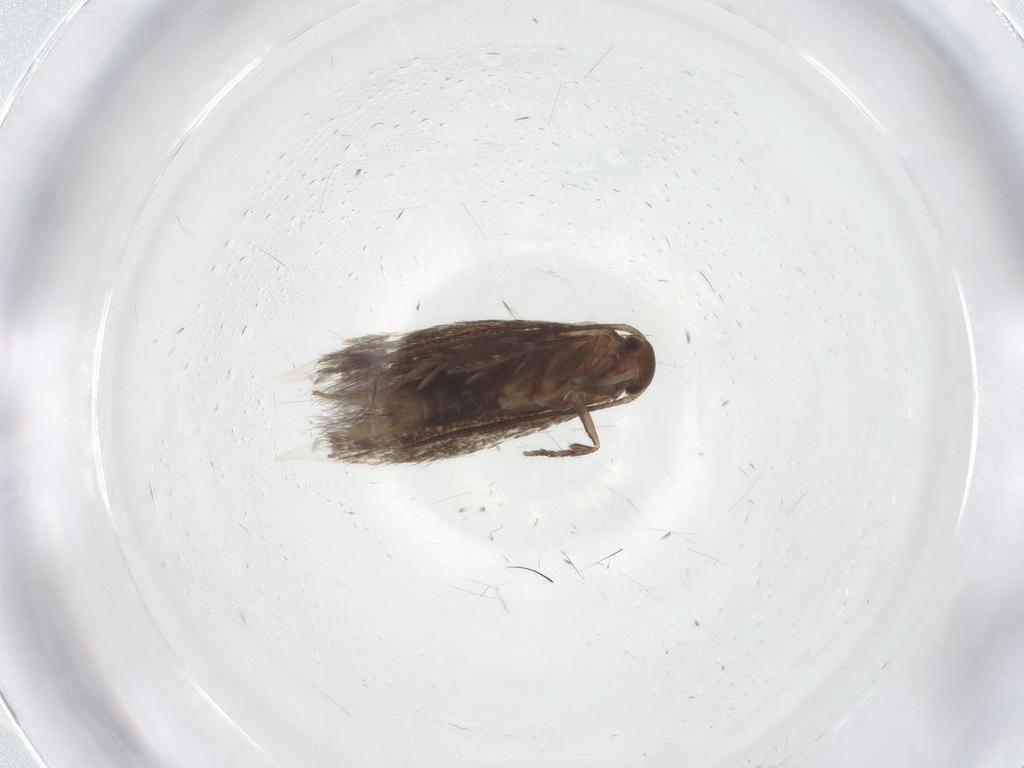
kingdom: Animalia
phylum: Arthropoda
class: Insecta
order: Lepidoptera
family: Elachistidae
